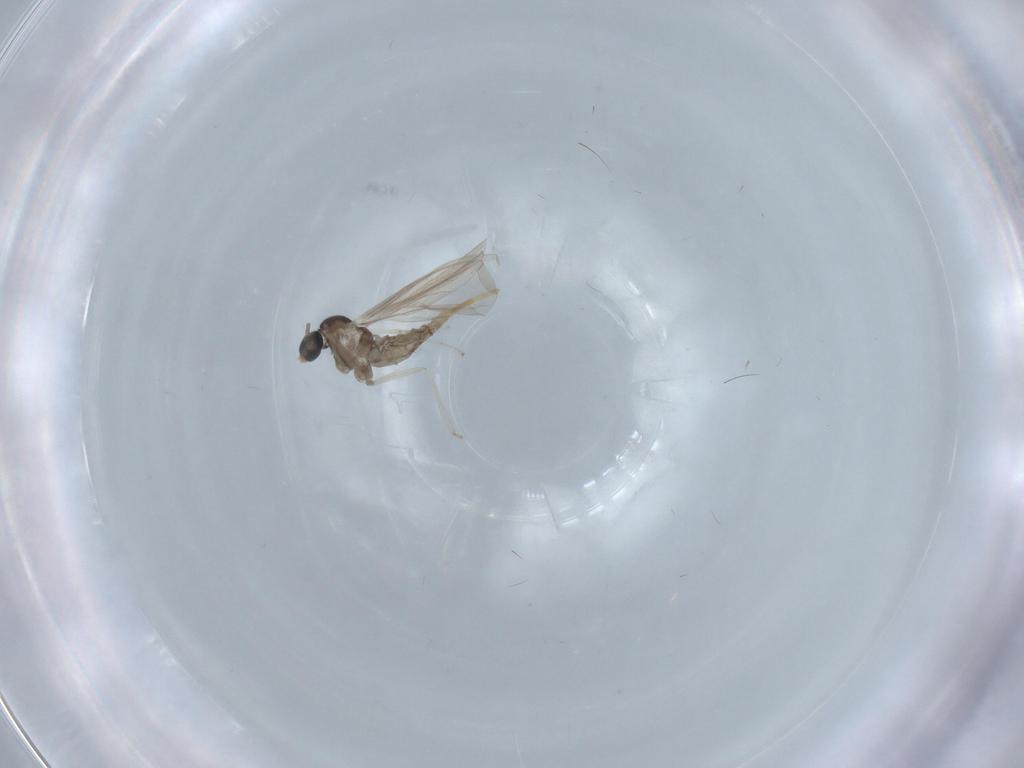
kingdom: Animalia
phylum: Arthropoda
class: Insecta
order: Diptera
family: Cecidomyiidae
